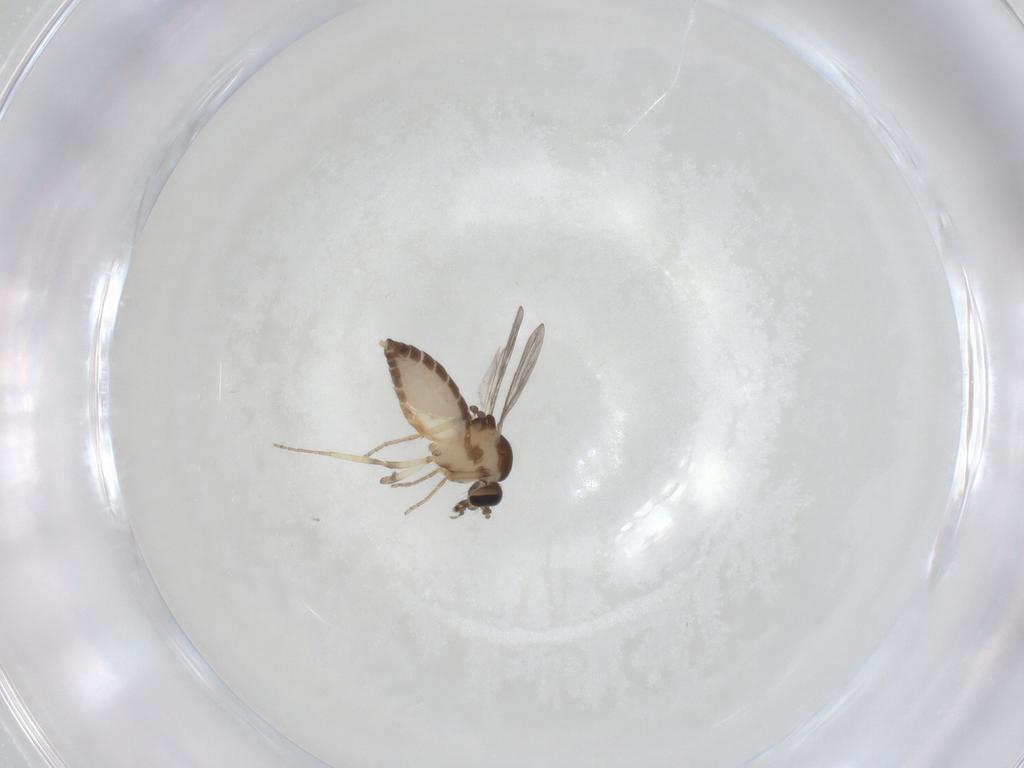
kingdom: Animalia
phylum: Arthropoda
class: Insecta
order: Diptera
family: Ceratopogonidae
